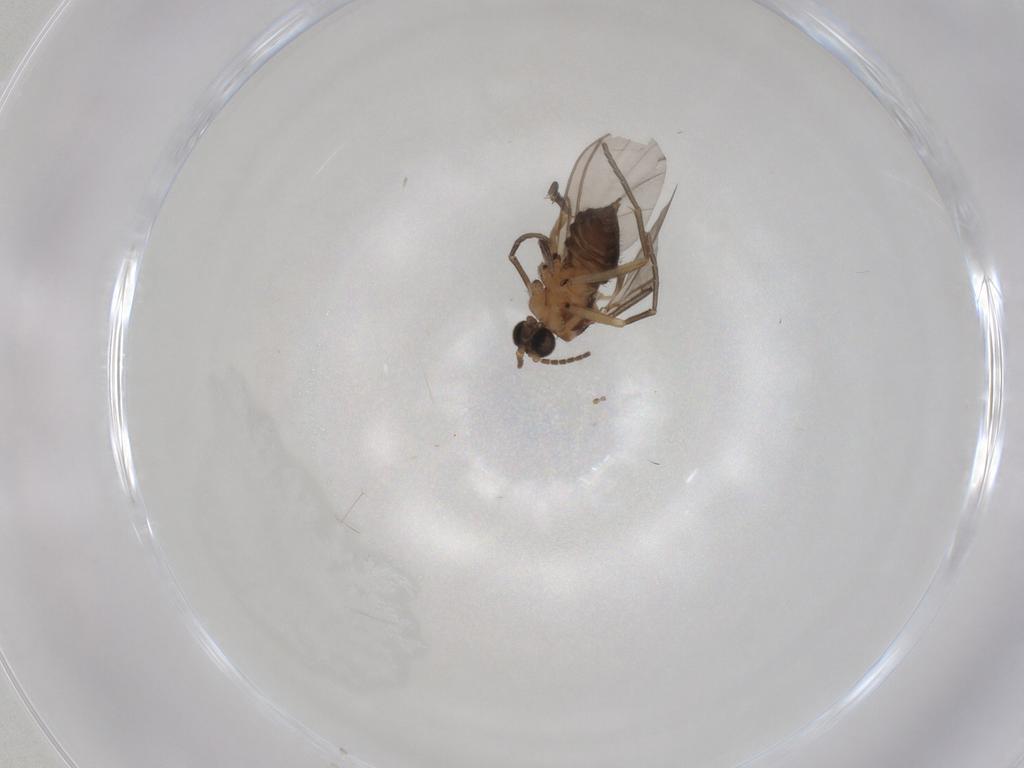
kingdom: Animalia
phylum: Arthropoda
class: Insecta
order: Diptera
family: Sciaridae
